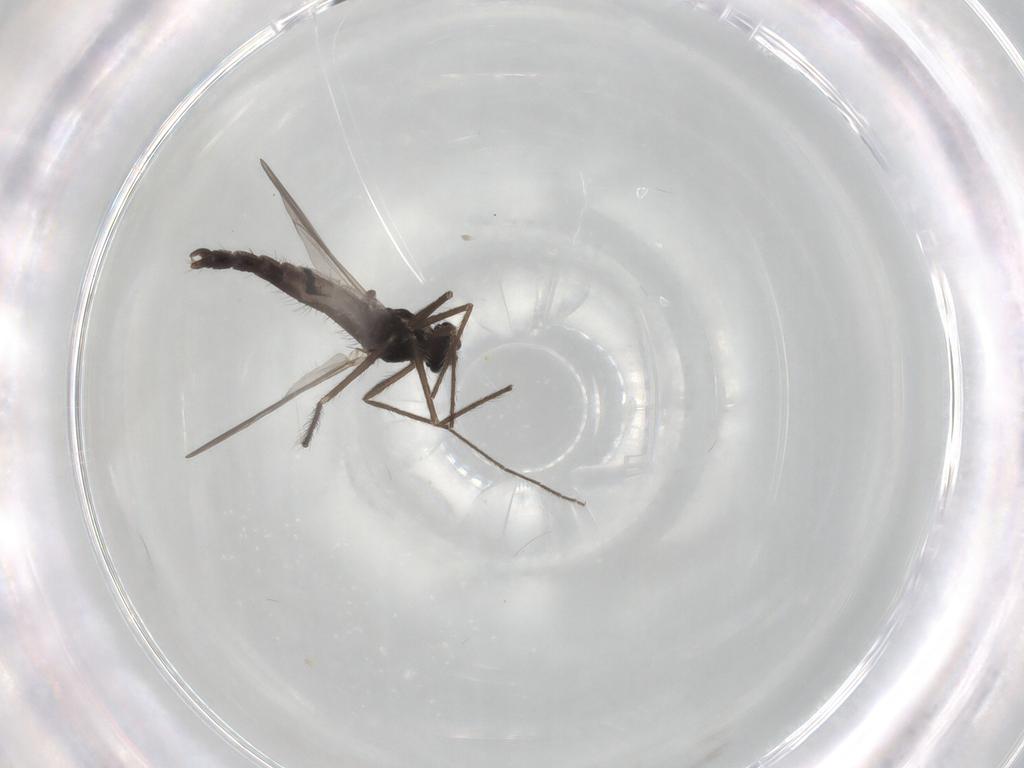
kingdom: Animalia
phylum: Arthropoda
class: Insecta
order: Diptera
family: Chironomidae
